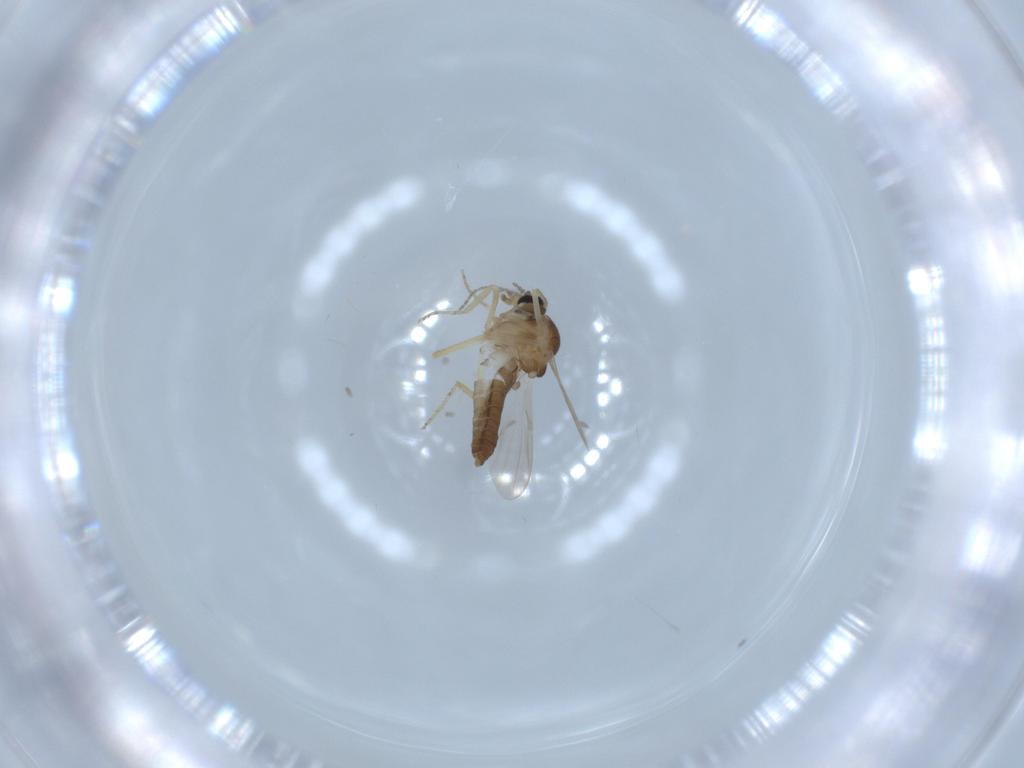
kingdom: Animalia
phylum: Arthropoda
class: Insecta
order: Diptera
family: Ceratopogonidae
